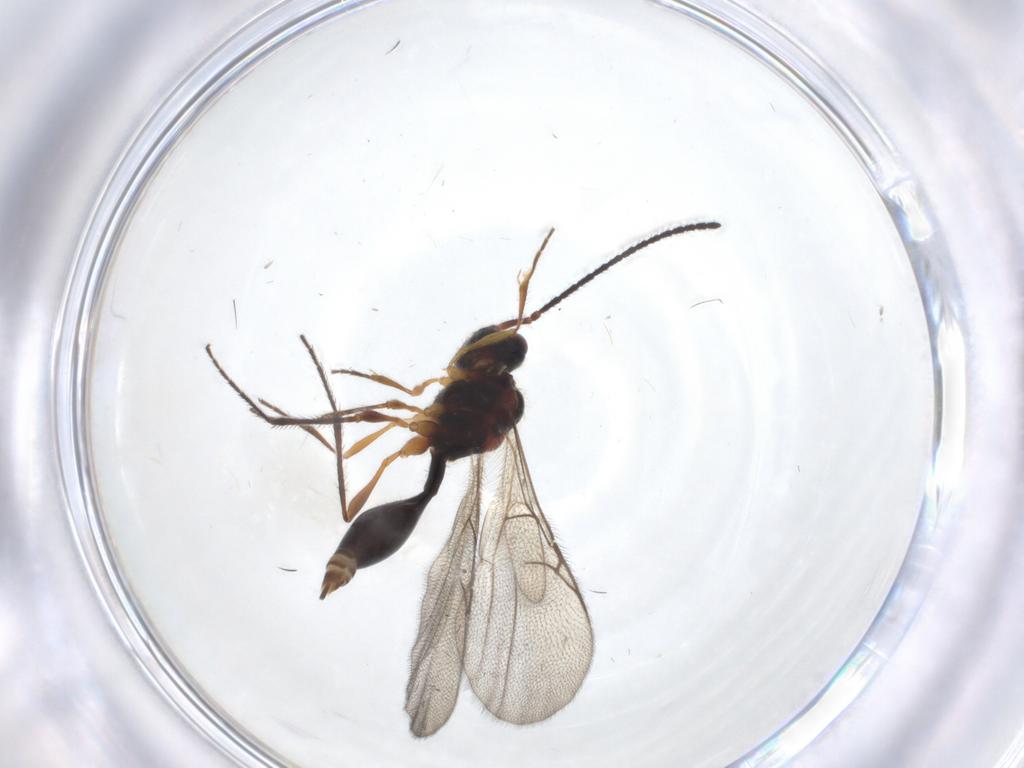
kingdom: Animalia
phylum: Arthropoda
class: Insecta
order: Hymenoptera
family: Diapriidae
